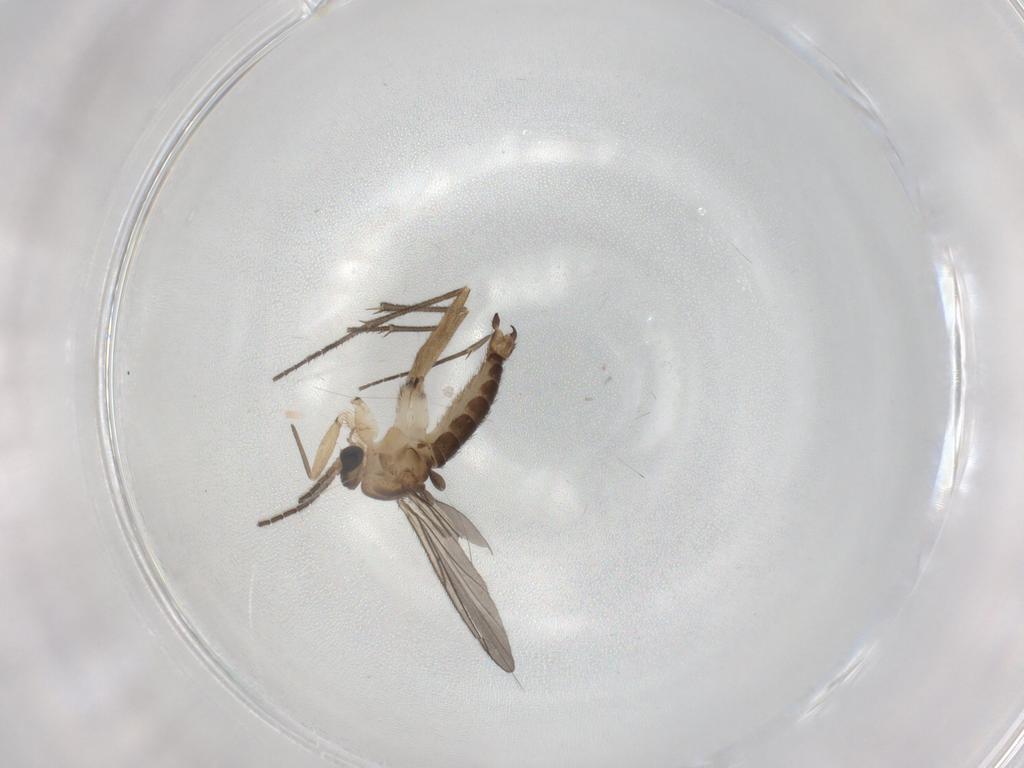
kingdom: Animalia
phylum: Arthropoda
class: Insecta
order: Diptera
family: Sciaridae
